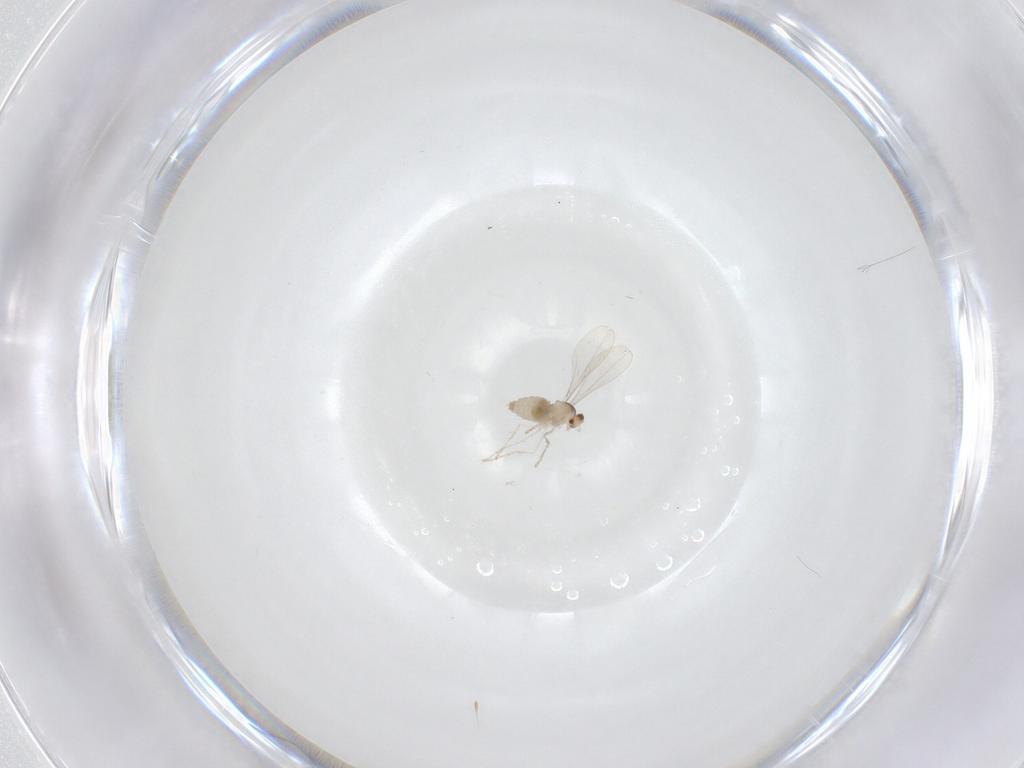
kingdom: Animalia
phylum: Arthropoda
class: Insecta
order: Diptera
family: Cecidomyiidae
